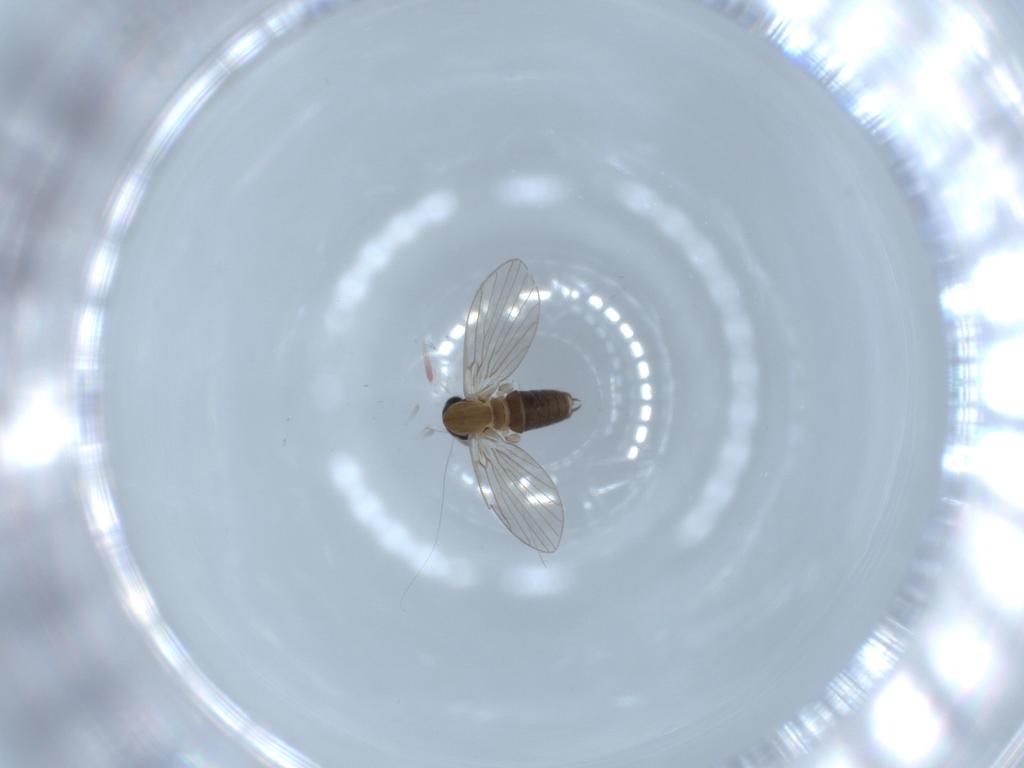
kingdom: Animalia
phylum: Arthropoda
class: Insecta
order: Diptera
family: Psychodidae
